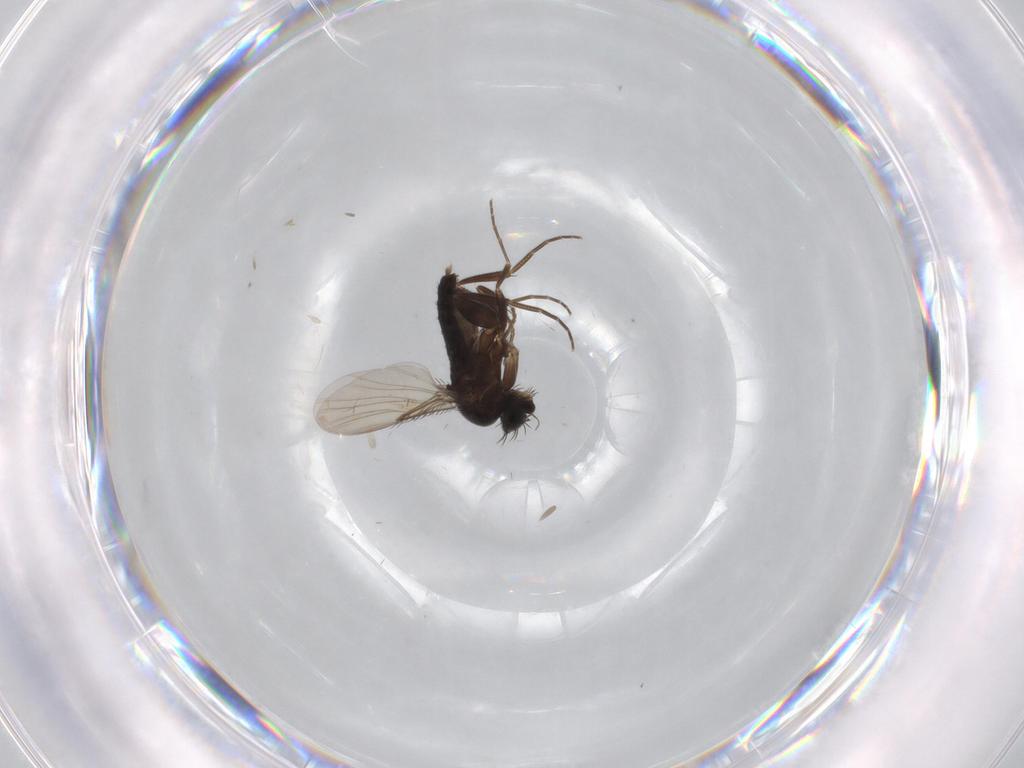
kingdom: Animalia
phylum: Arthropoda
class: Insecta
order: Diptera
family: Phoridae
